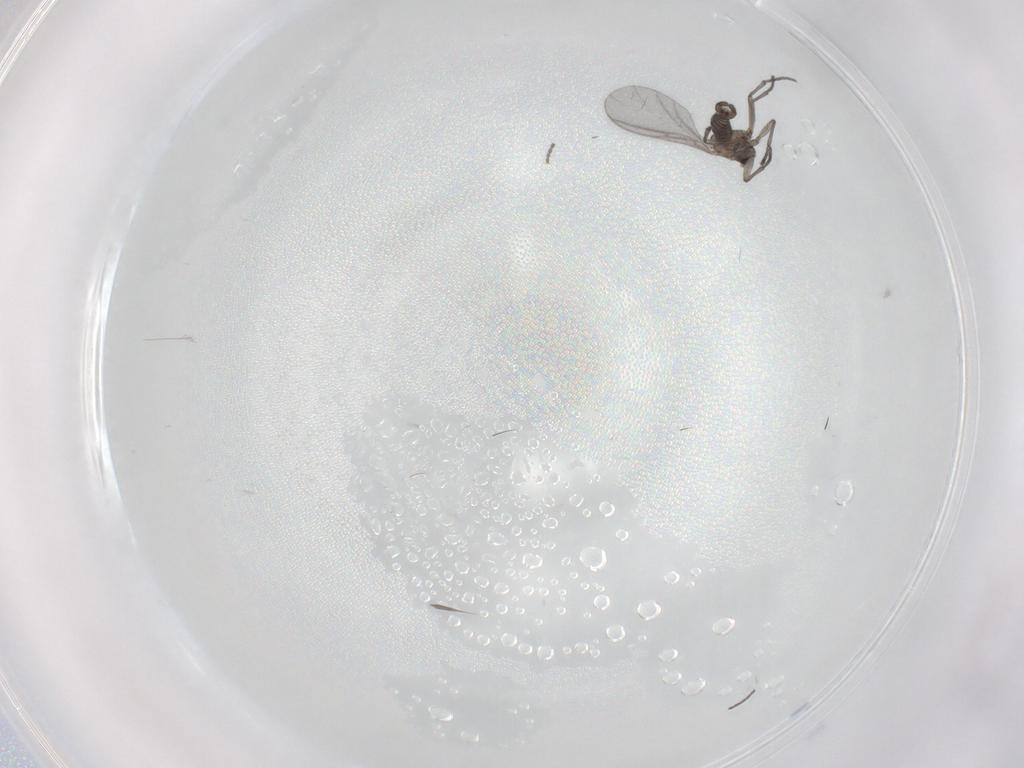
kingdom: Animalia
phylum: Arthropoda
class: Insecta
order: Diptera
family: Sciaridae
